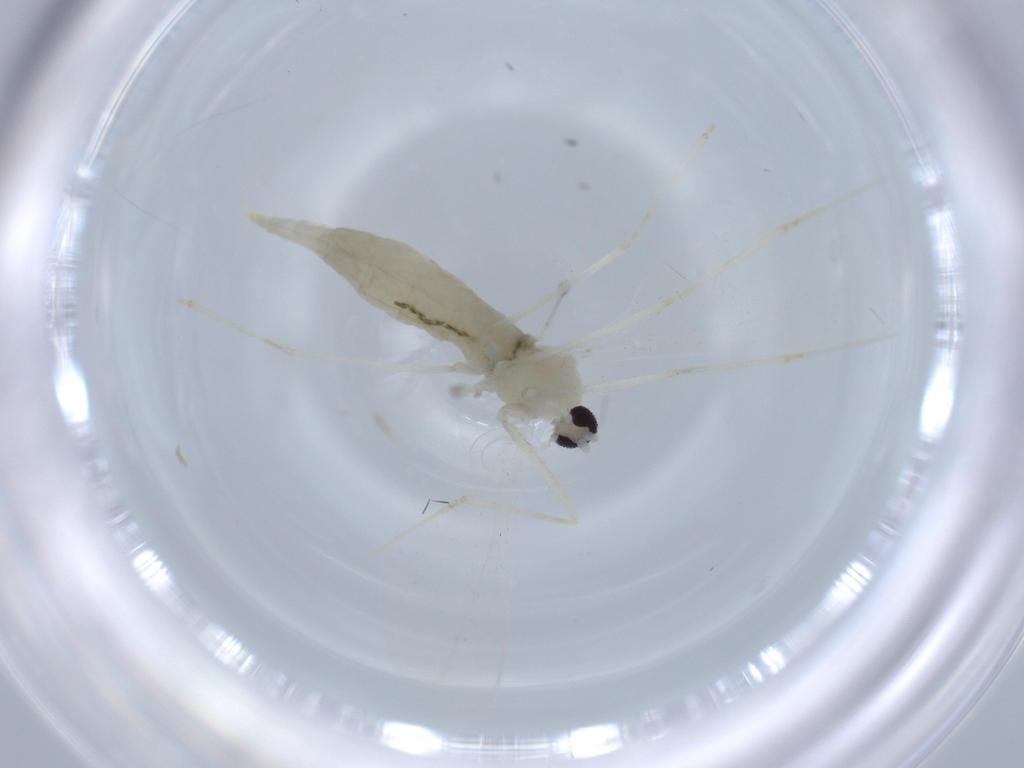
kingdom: Animalia
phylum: Arthropoda
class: Insecta
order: Diptera
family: Cecidomyiidae
